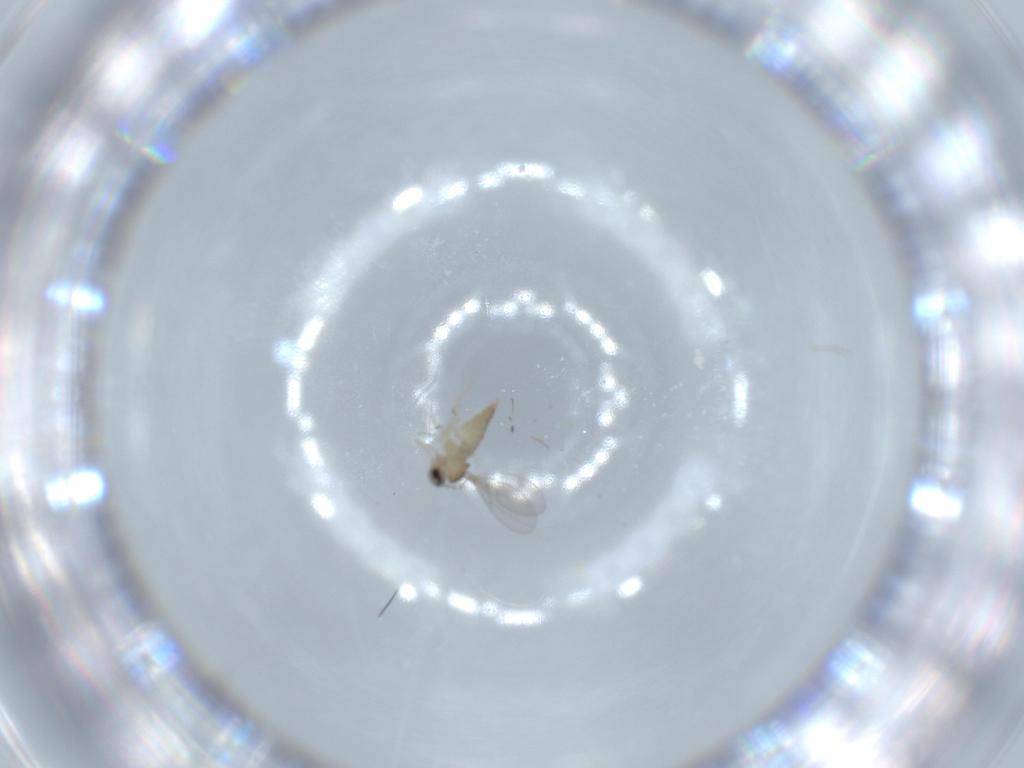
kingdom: Animalia
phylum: Arthropoda
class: Insecta
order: Diptera
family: Cecidomyiidae
